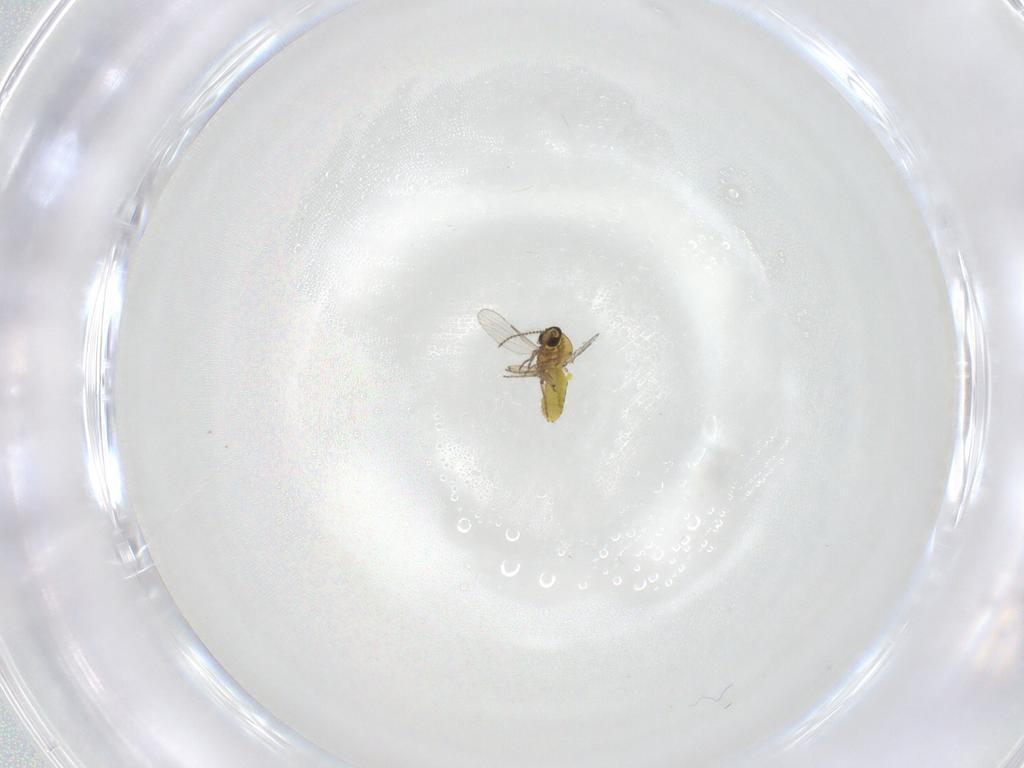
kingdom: Animalia
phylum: Arthropoda
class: Insecta
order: Diptera
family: Ceratopogonidae
